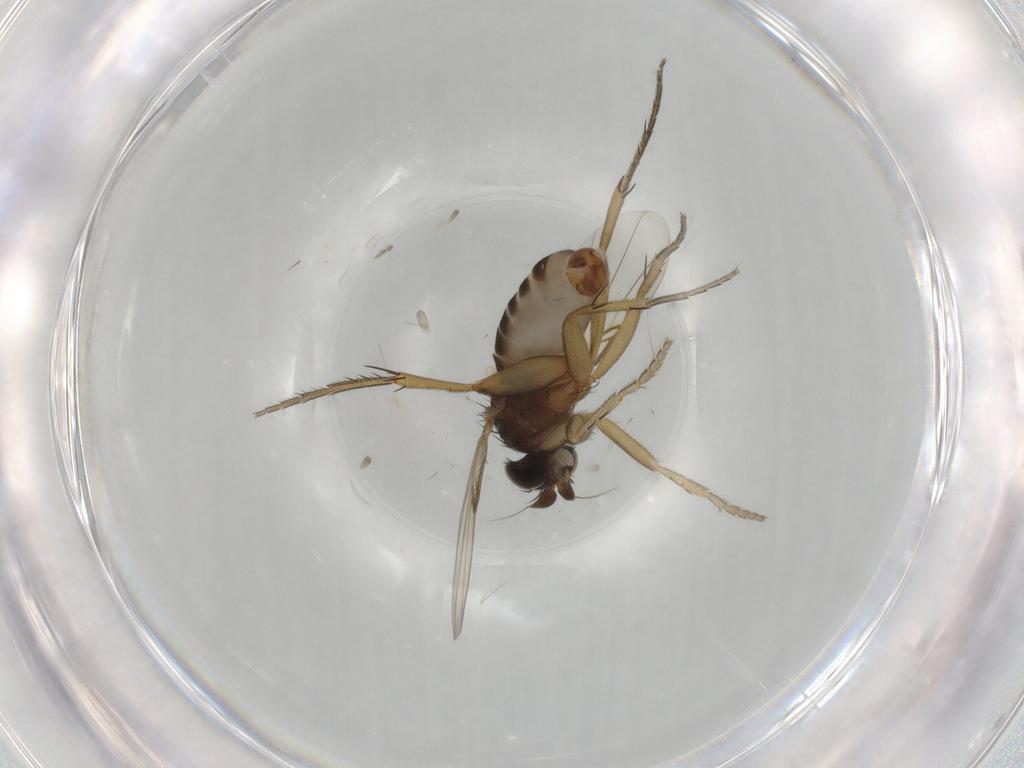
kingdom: Animalia
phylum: Arthropoda
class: Insecta
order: Diptera
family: Phoridae
